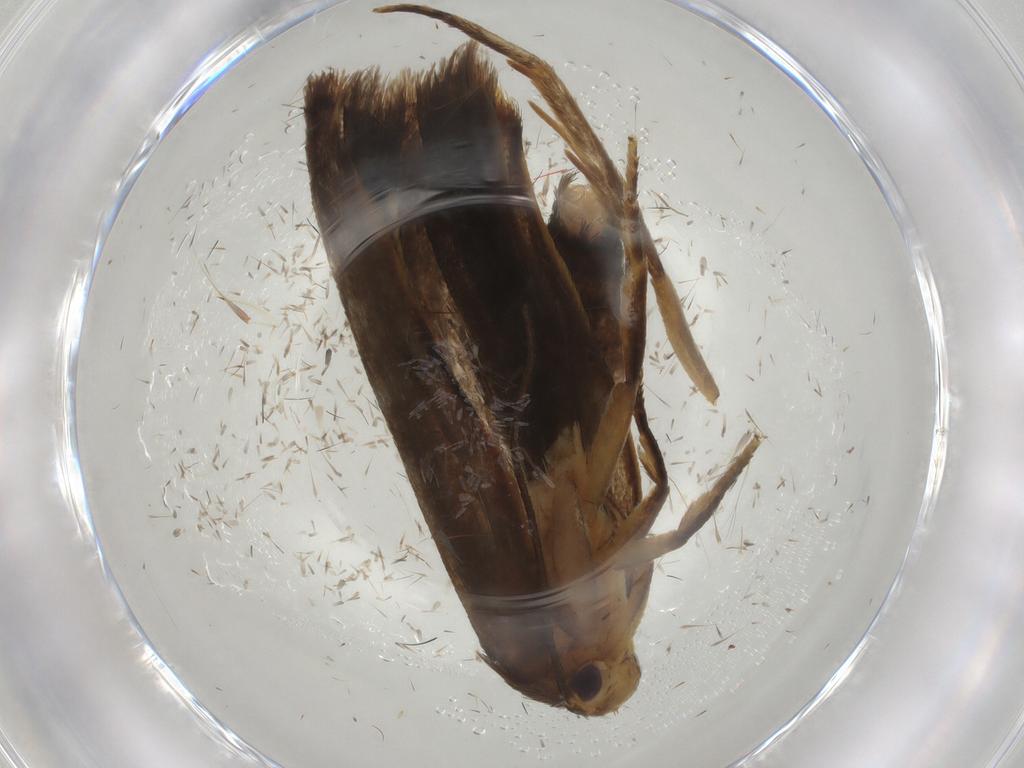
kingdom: Animalia
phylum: Arthropoda
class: Insecta
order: Lepidoptera
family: Depressariidae
